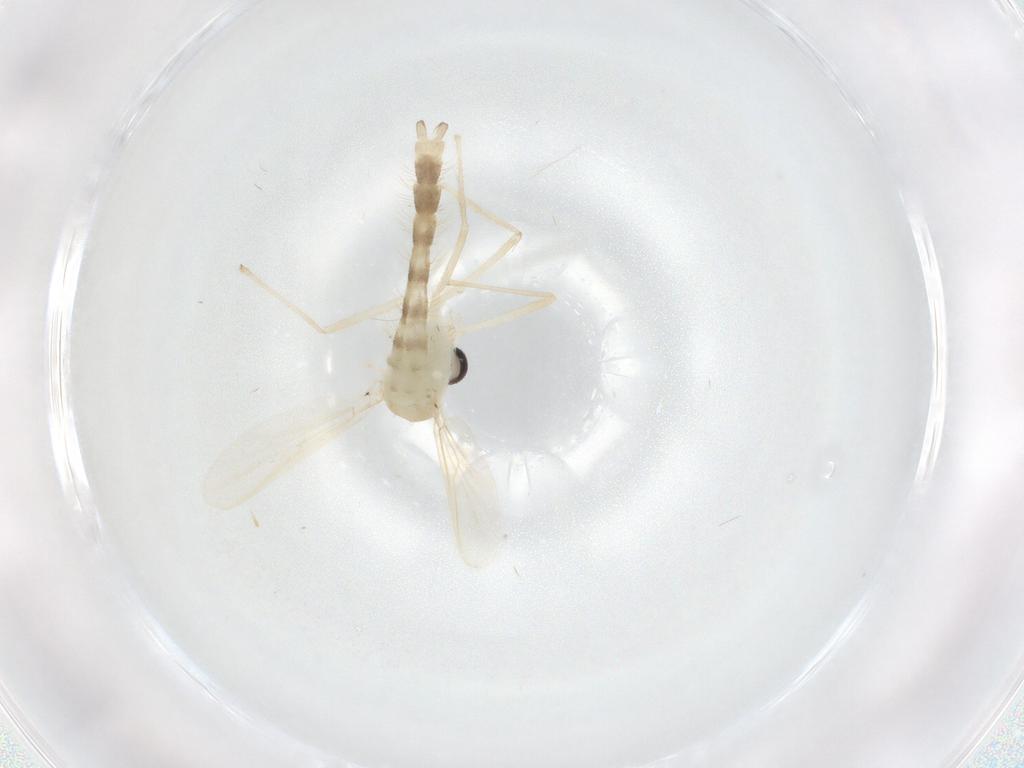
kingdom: Animalia
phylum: Arthropoda
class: Insecta
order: Diptera
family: Chironomidae
